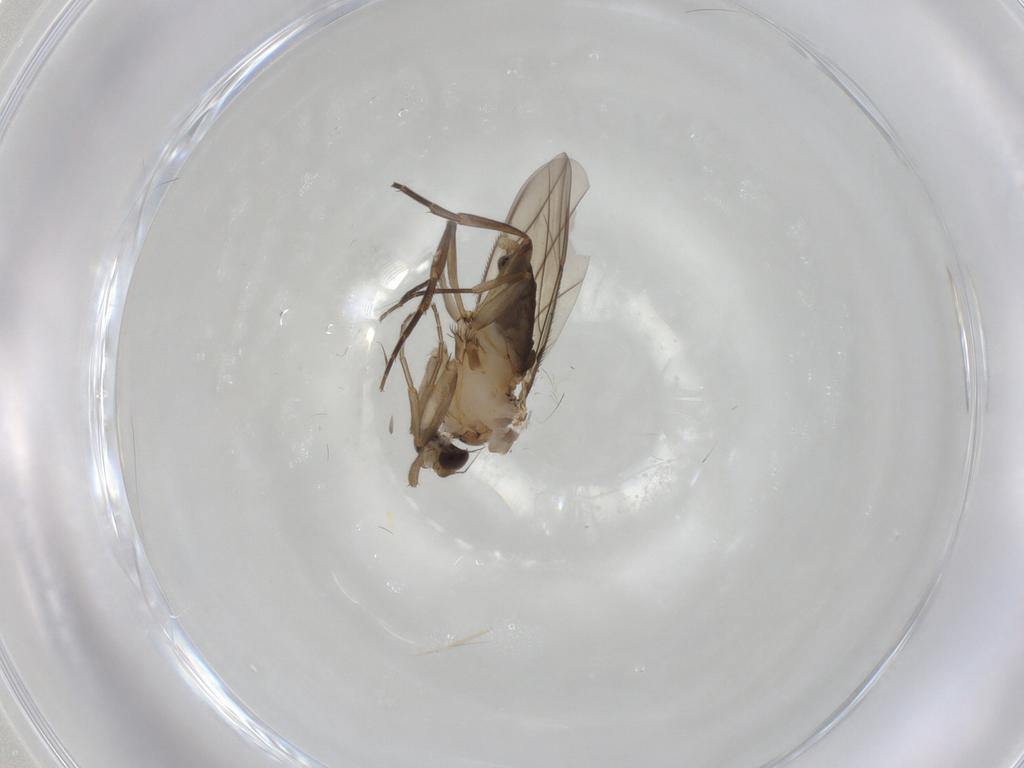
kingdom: Animalia
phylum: Arthropoda
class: Insecta
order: Diptera
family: Phoridae
